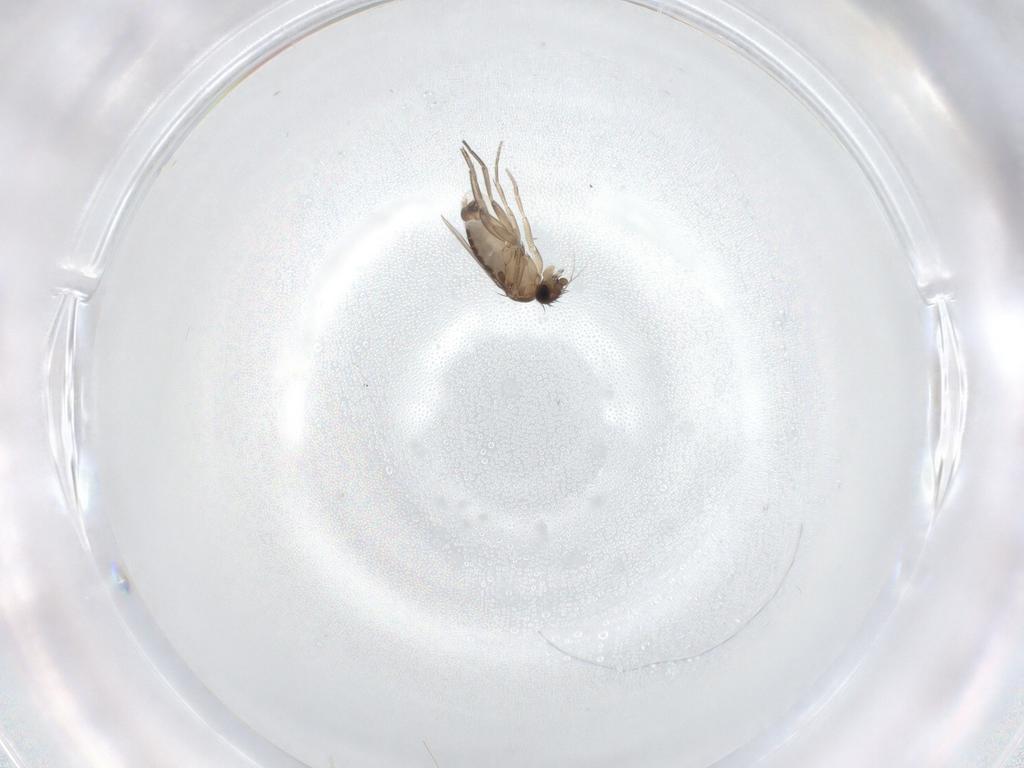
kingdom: Animalia
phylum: Arthropoda
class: Insecta
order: Diptera
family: Phoridae
